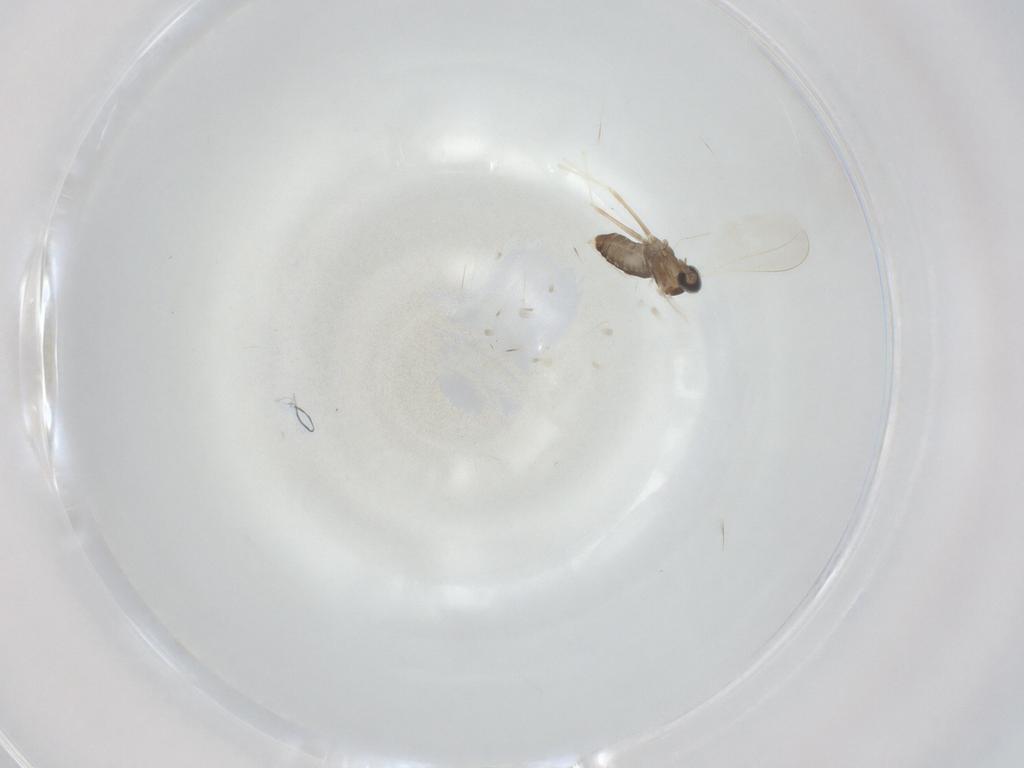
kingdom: Animalia
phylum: Arthropoda
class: Insecta
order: Diptera
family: Cecidomyiidae
